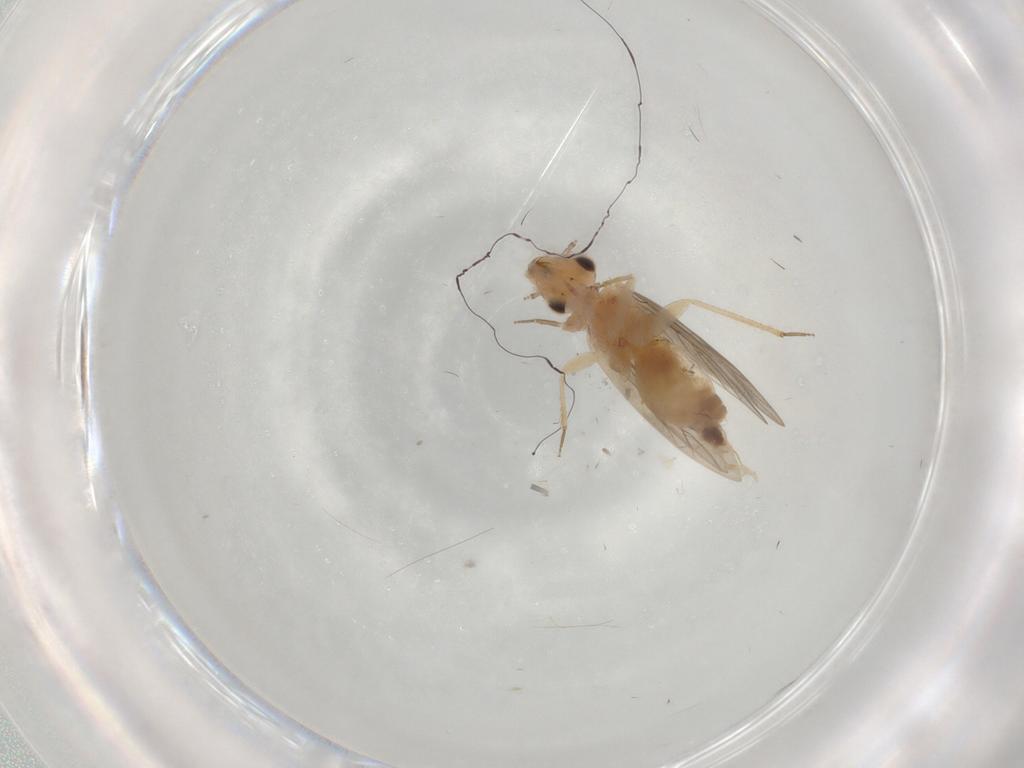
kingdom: Animalia
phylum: Arthropoda
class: Insecta
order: Psocodea
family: Lepidopsocidae
